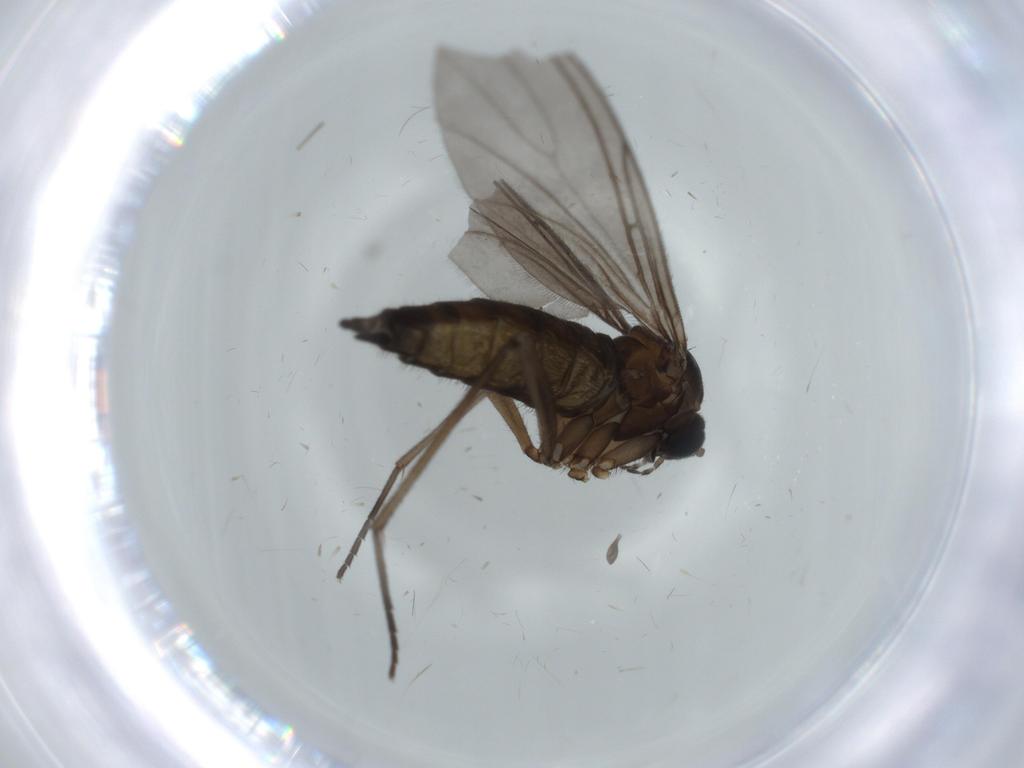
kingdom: Animalia
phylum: Arthropoda
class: Insecta
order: Diptera
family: Sciaridae
